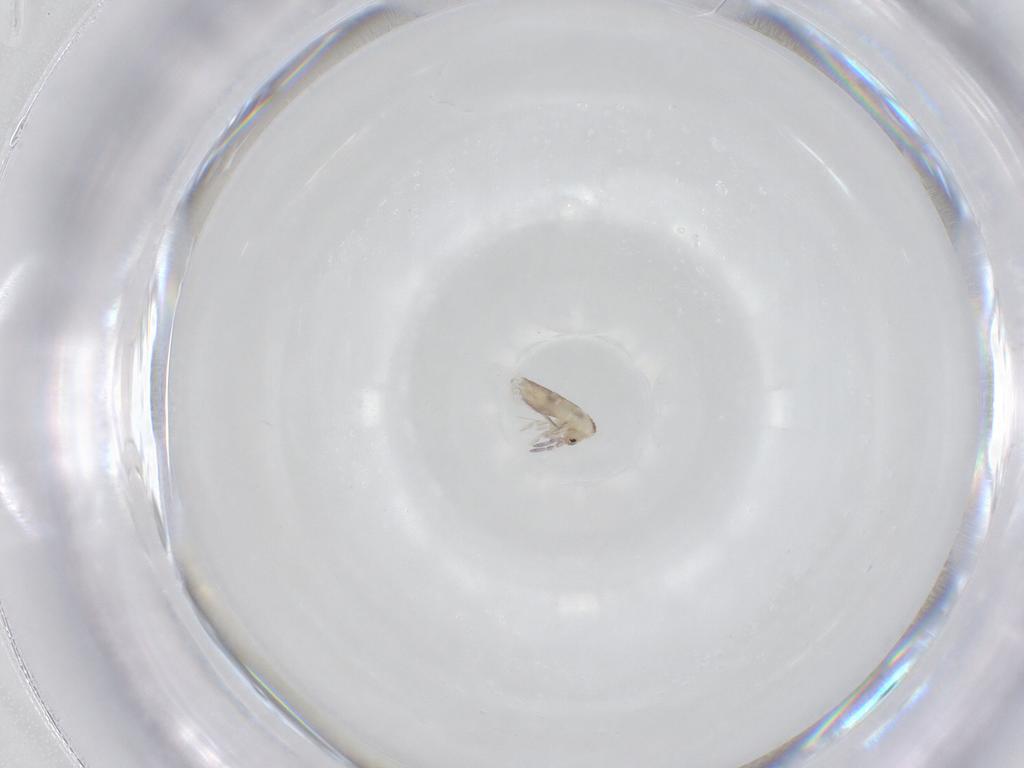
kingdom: Animalia
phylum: Arthropoda
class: Collembola
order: Entomobryomorpha
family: Entomobryidae
